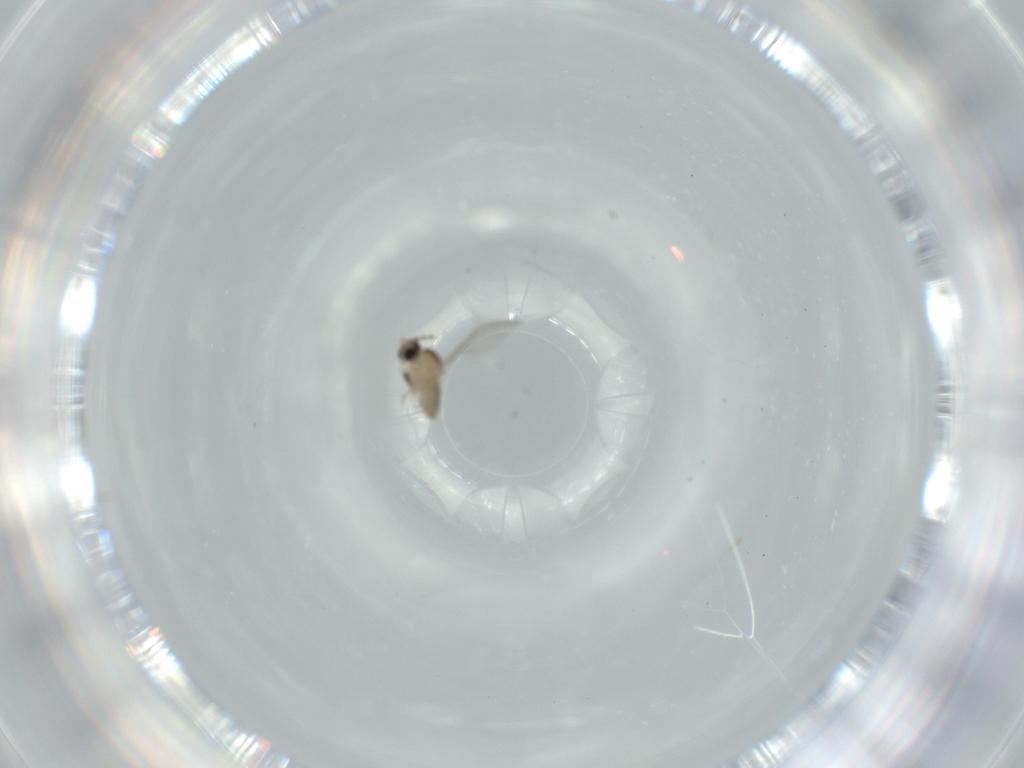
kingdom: Animalia
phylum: Arthropoda
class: Insecta
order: Diptera
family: Cecidomyiidae
